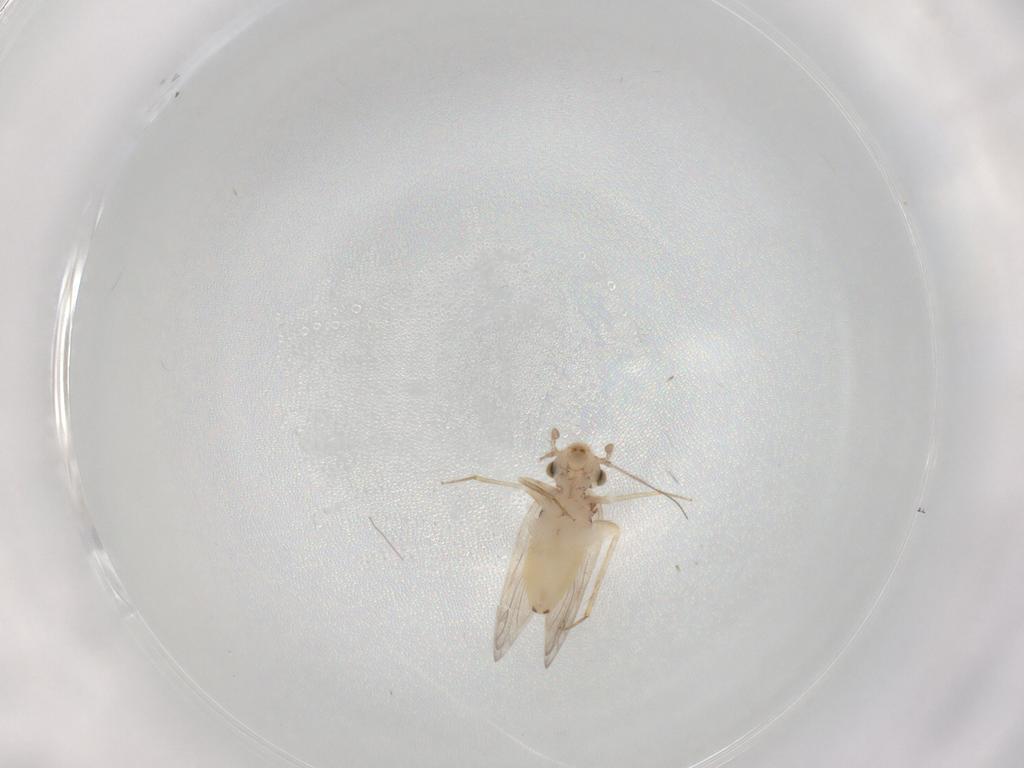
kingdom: Animalia
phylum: Arthropoda
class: Insecta
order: Psocodea
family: Lepidopsocidae
